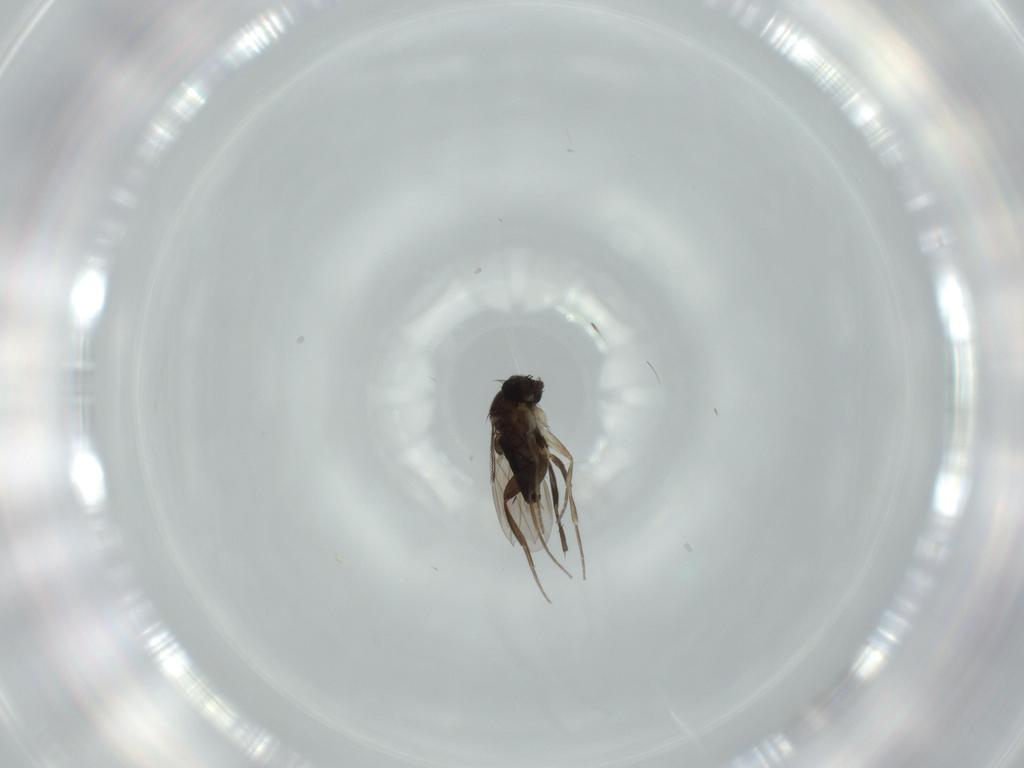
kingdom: Animalia
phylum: Arthropoda
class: Insecta
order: Diptera
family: Phoridae
